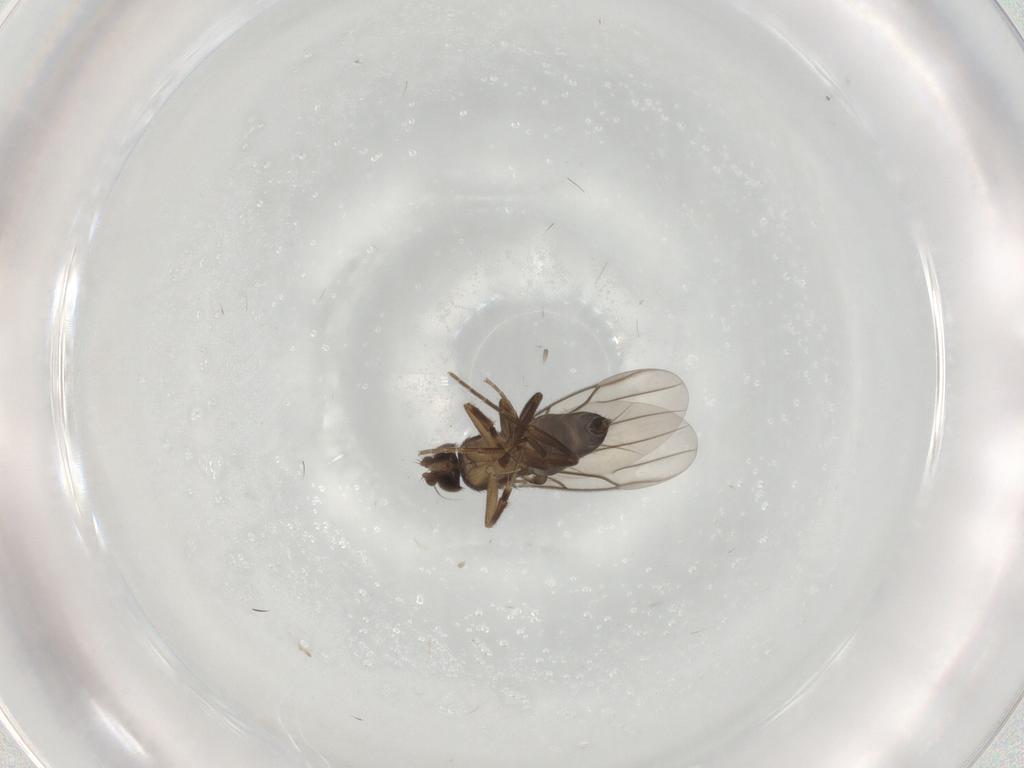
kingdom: Animalia
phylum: Arthropoda
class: Insecta
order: Diptera
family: Phoridae
